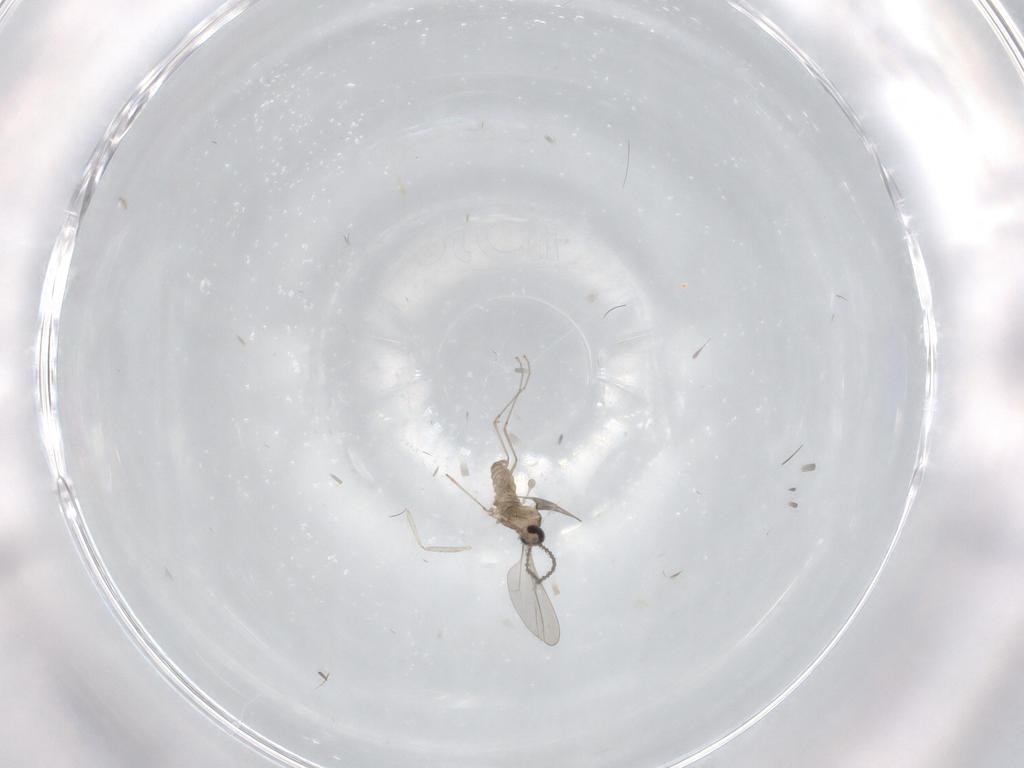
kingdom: Animalia
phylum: Arthropoda
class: Insecta
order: Diptera
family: Cecidomyiidae
